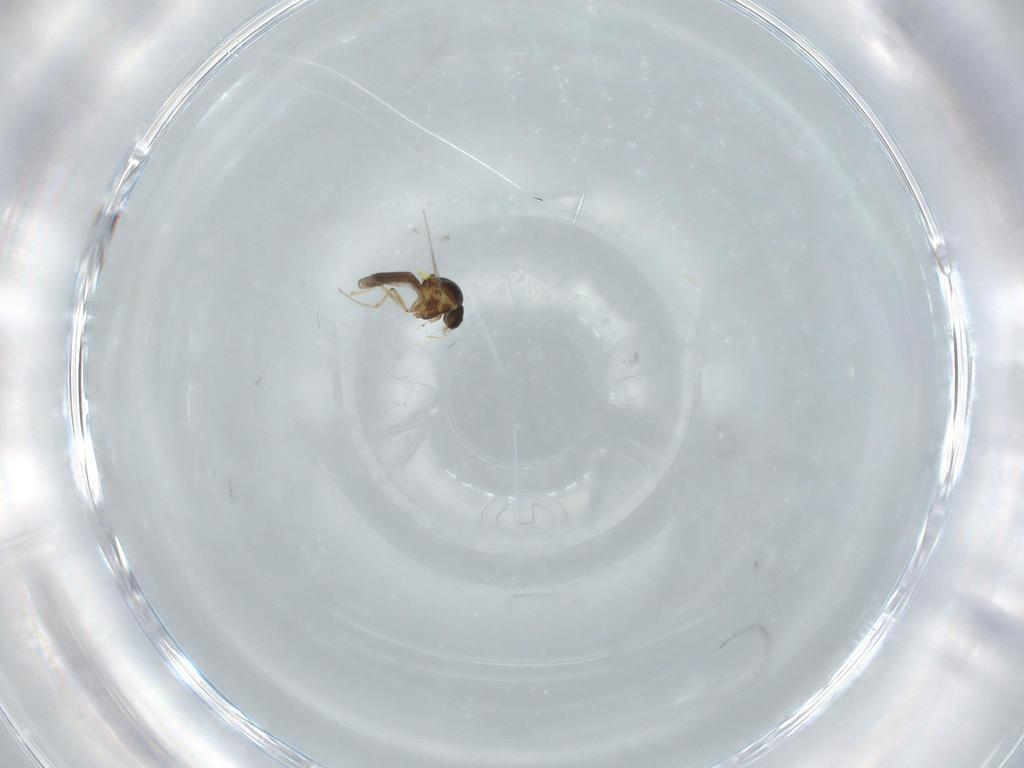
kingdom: Animalia
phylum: Arthropoda
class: Insecta
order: Diptera
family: Ceratopogonidae
